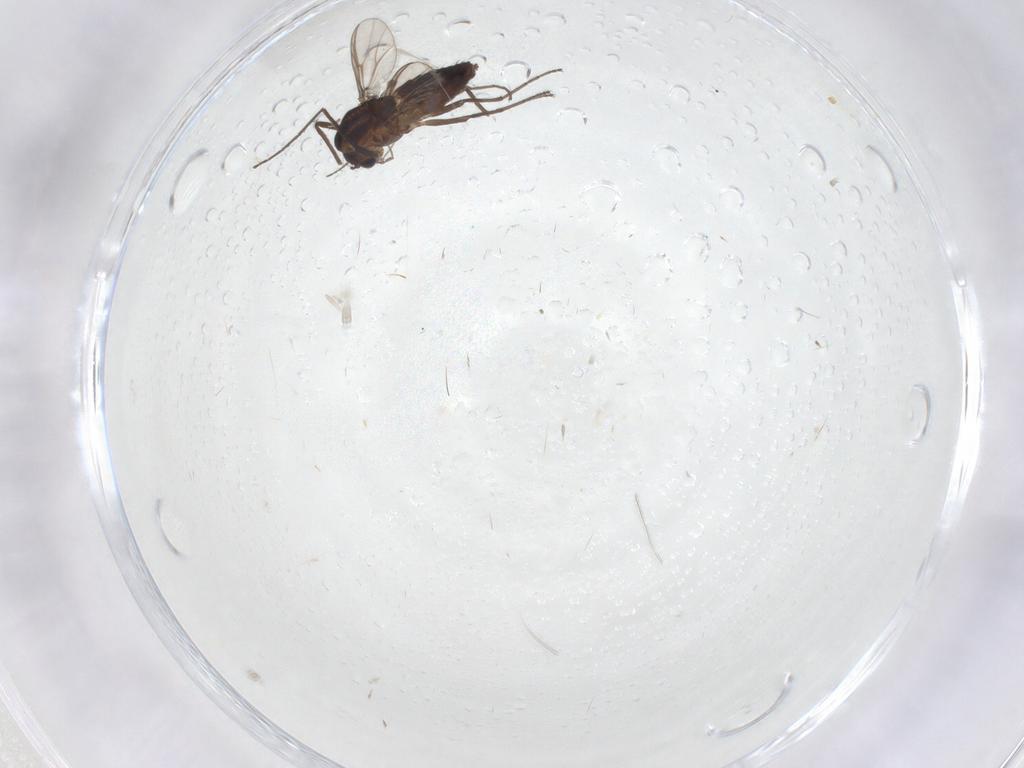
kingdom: Animalia
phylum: Arthropoda
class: Insecta
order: Diptera
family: Chironomidae
